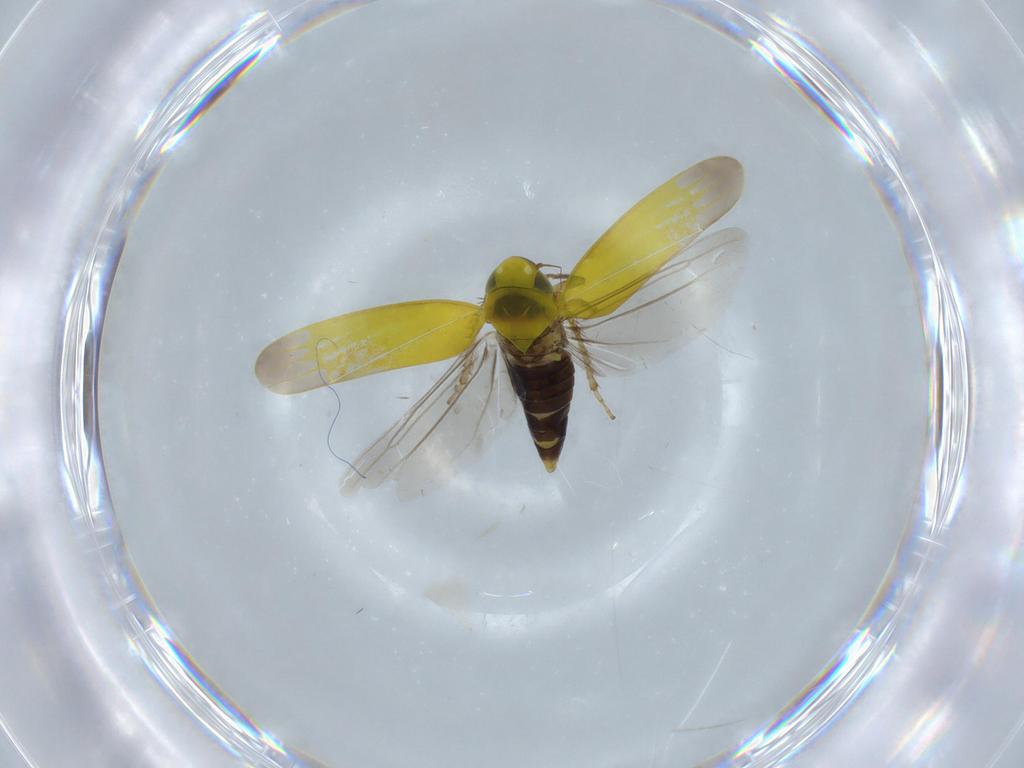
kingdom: Animalia
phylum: Arthropoda
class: Insecta
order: Hemiptera
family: Cicadellidae
